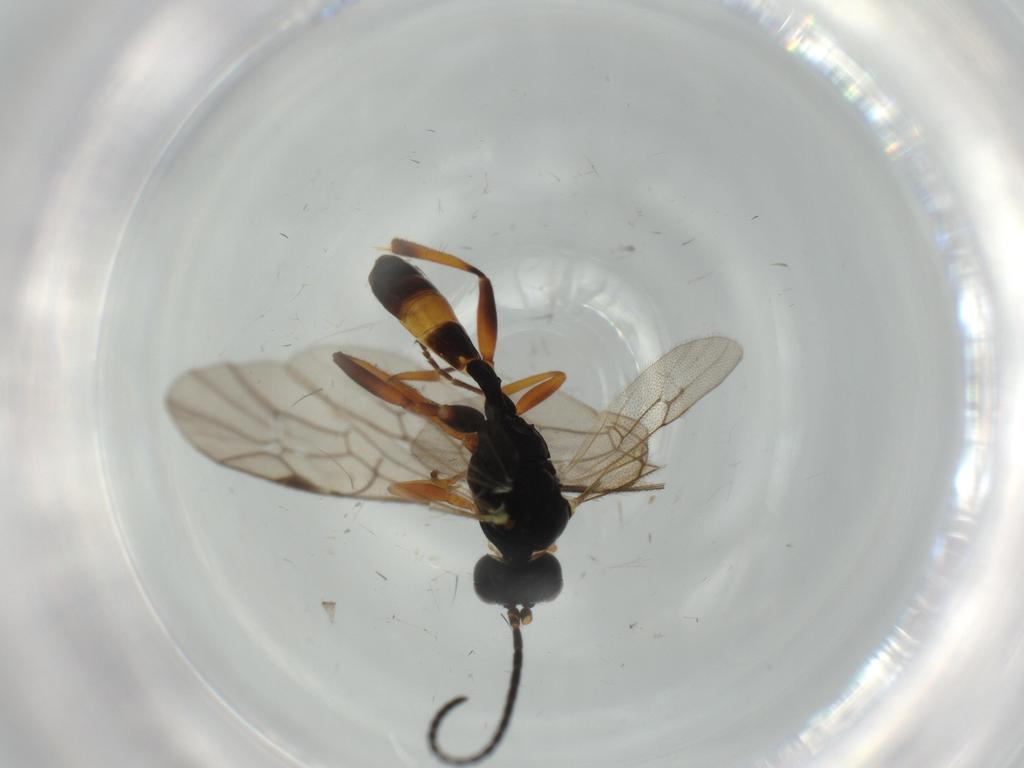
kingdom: Animalia
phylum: Arthropoda
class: Insecta
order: Hymenoptera
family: Ichneumonidae
